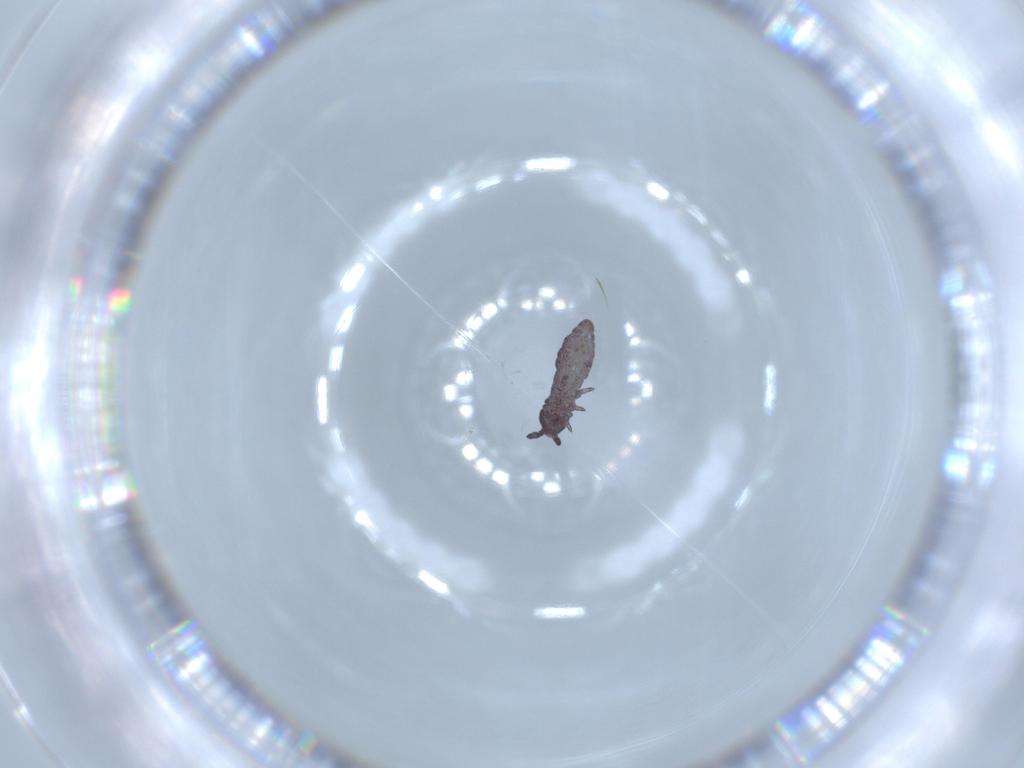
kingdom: Animalia
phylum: Arthropoda
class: Collembola
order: Poduromorpha
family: Hypogastruridae
